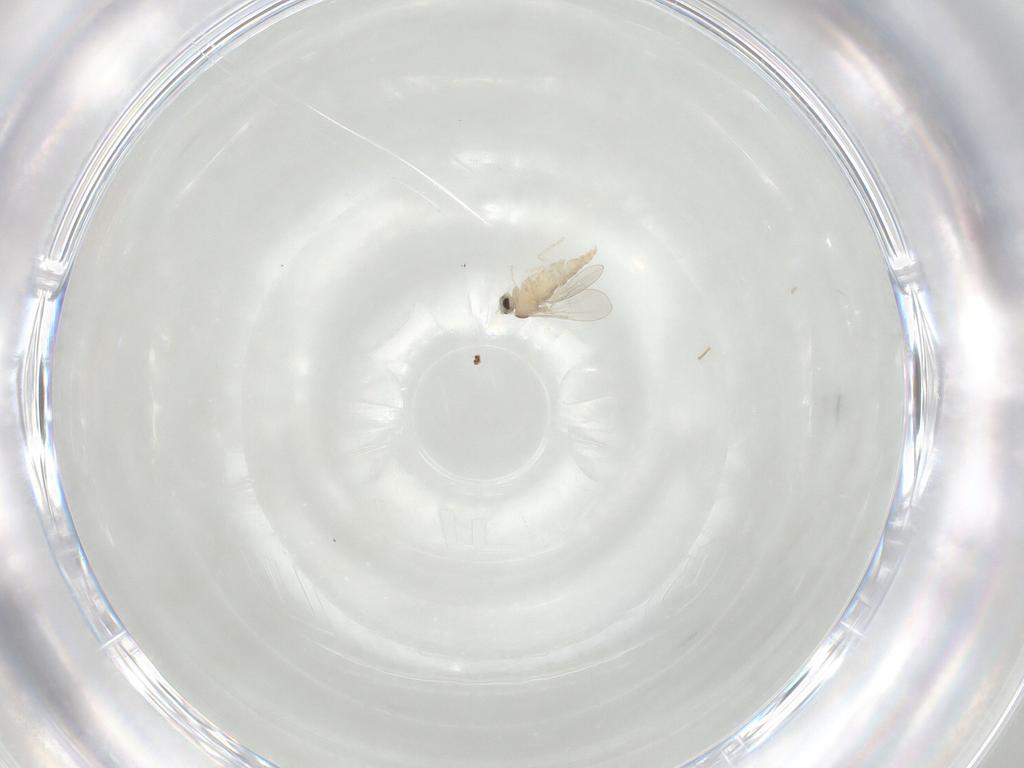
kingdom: Animalia
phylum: Arthropoda
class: Insecta
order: Diptera
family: Cecidomyiidae
